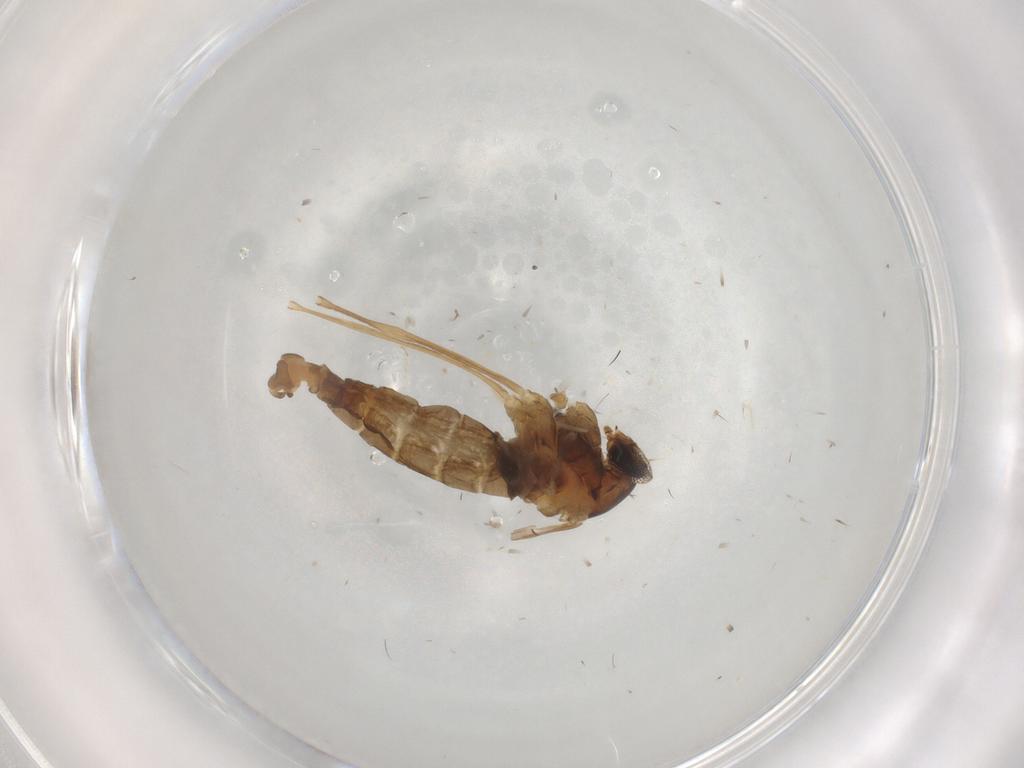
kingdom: Animalia
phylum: Arthropoda
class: Insecta
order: Diptera
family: Cecidomyiidae
